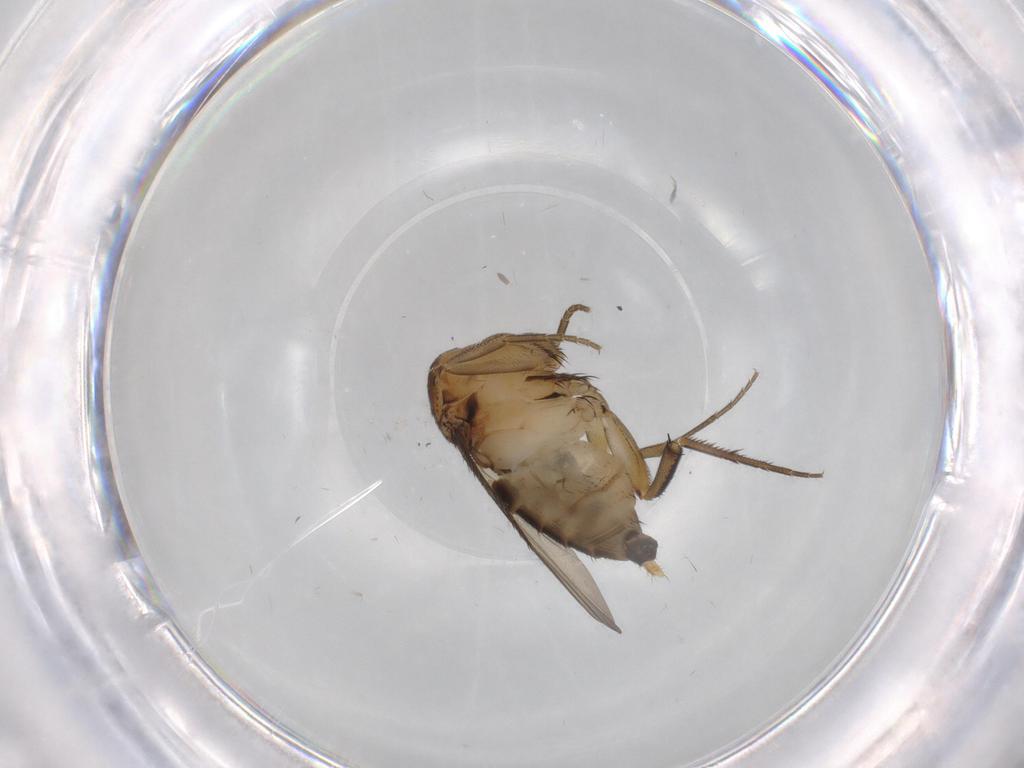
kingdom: Animalia
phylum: Arthropoda
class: Insecta
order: Diptera
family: Phoridae
